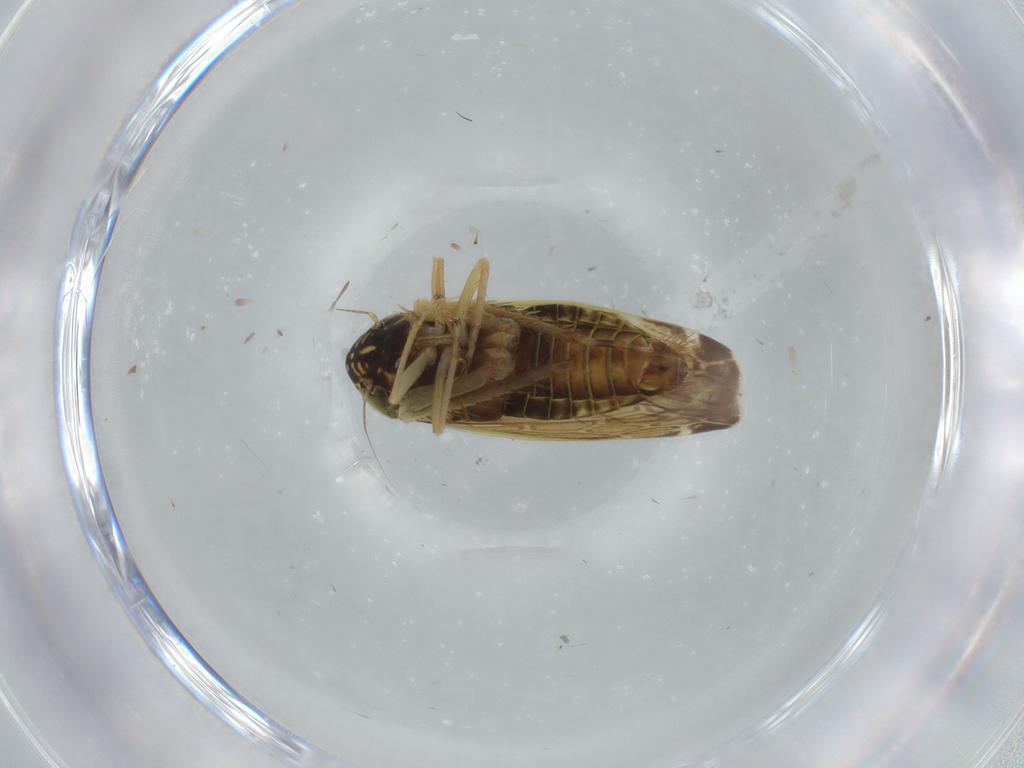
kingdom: Animalia
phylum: Arthropoda
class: Insecta
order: Hemiptera
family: Cicadellidae
